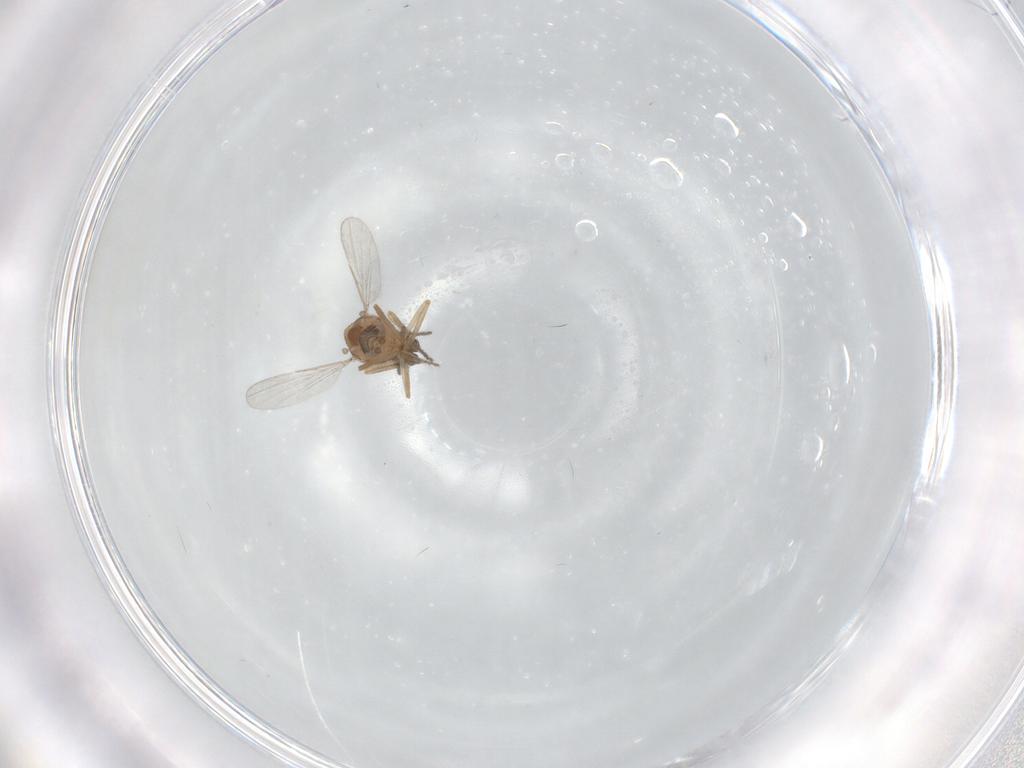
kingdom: Animalia
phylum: Arthropoda
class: Insecta
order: Diptera
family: Ceratopogonidae
